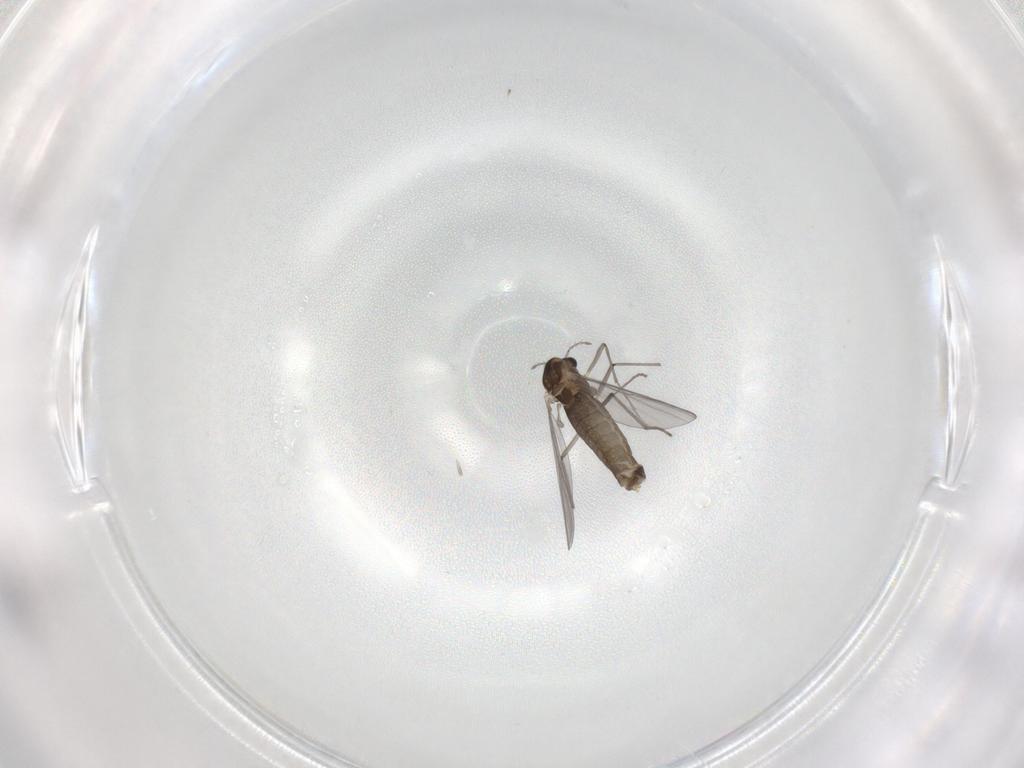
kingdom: Animalia
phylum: Arthropoda
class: Insecta
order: Diptera
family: Chironomidae
